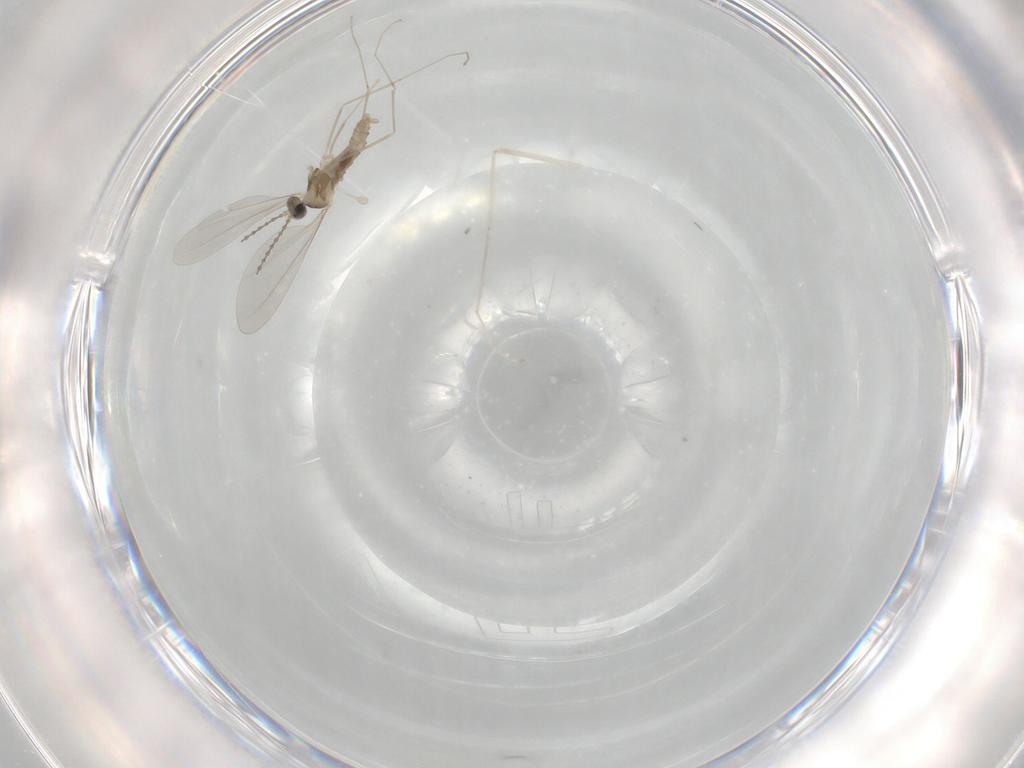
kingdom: Animalia
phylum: Arthropoda
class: Insecta
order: Diptera
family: Cecidomyiidae
